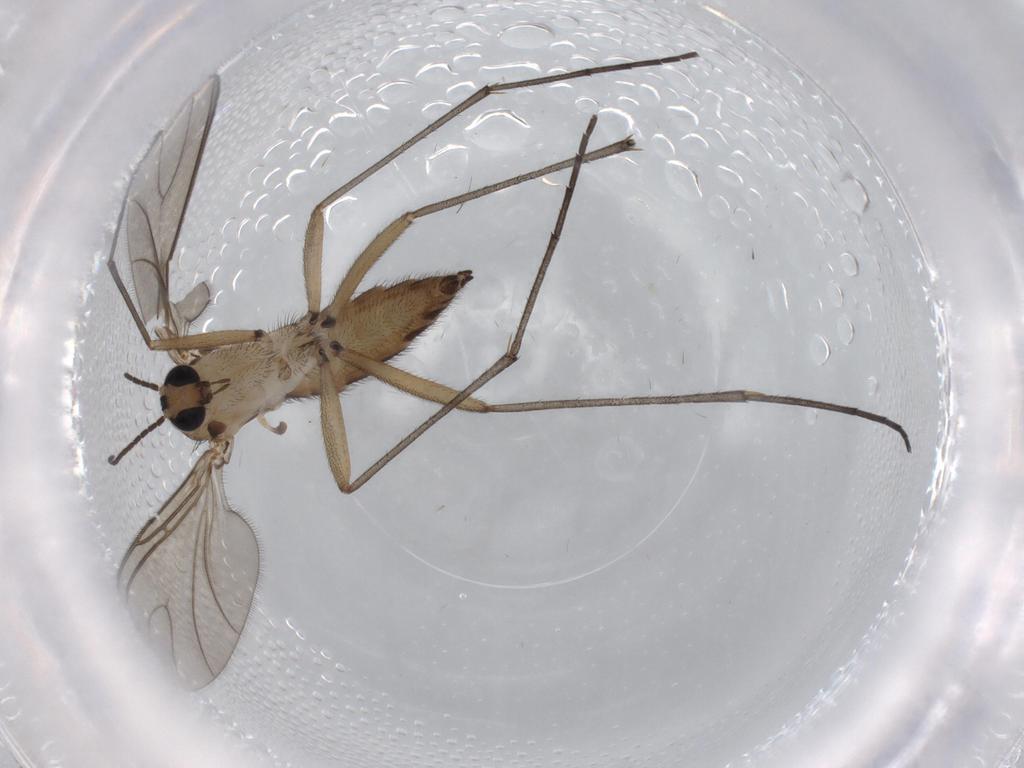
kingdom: Animalia
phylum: Arthropoda
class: Insecta
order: Diptera
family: Sciaridae
